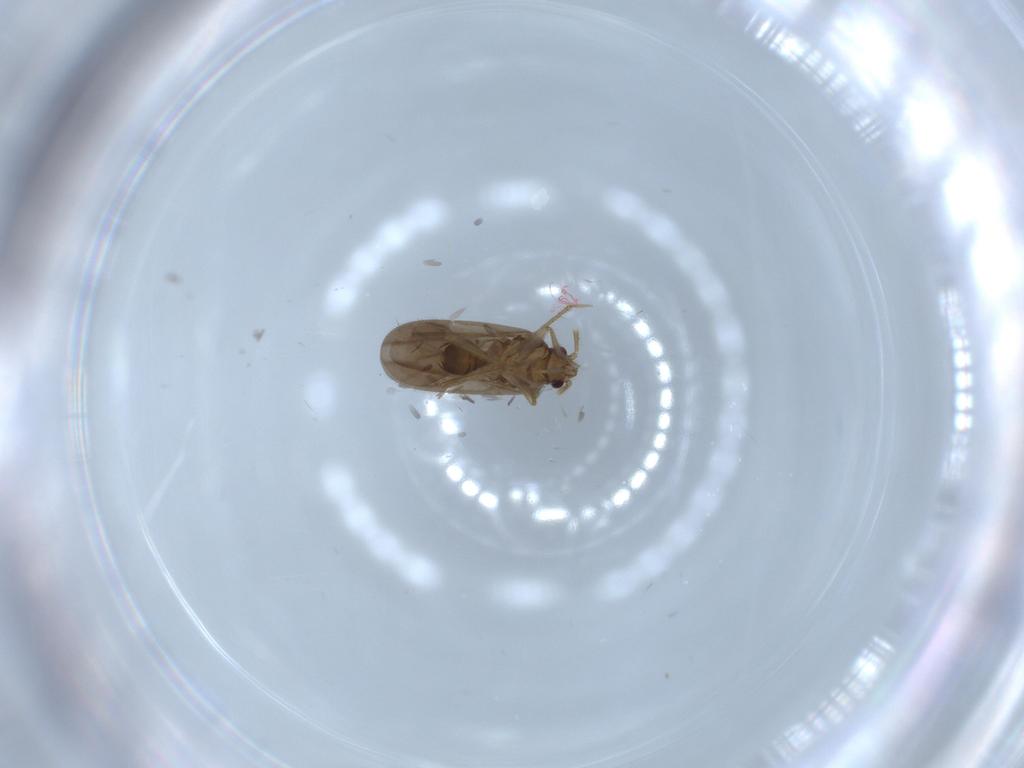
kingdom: Animalia
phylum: Arthropoda
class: Insecta
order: Hemiptera
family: Ceratocombidae
